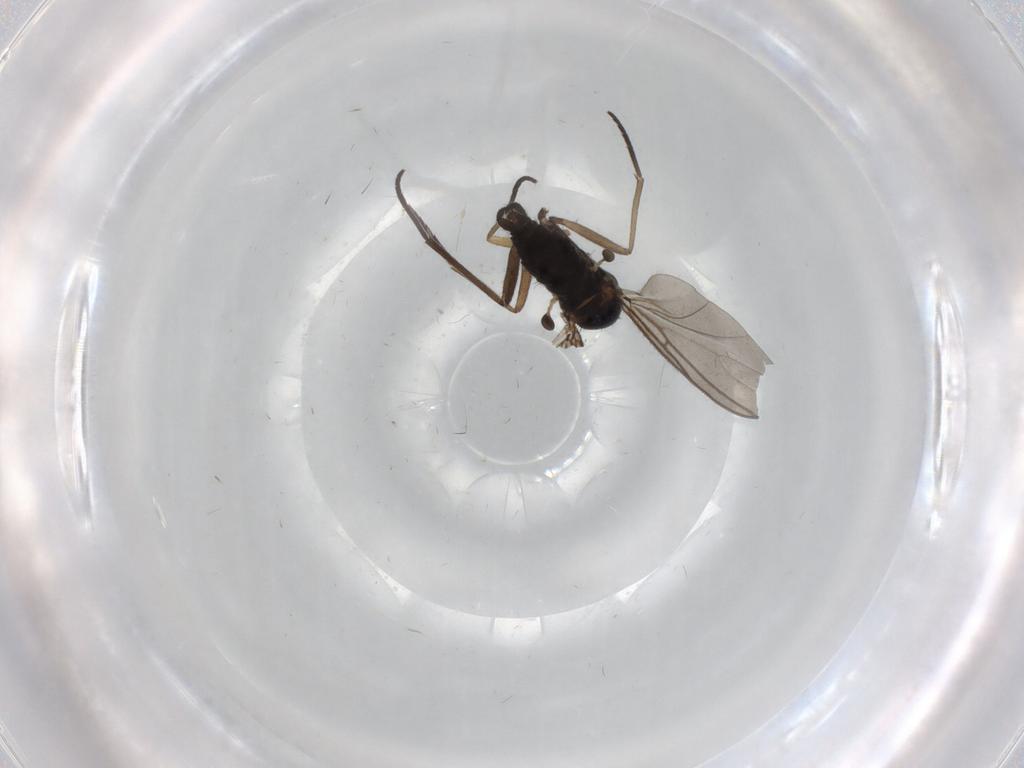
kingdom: Animalia
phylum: Arthropoda
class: Insecta
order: Diptera
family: Sciaridae
